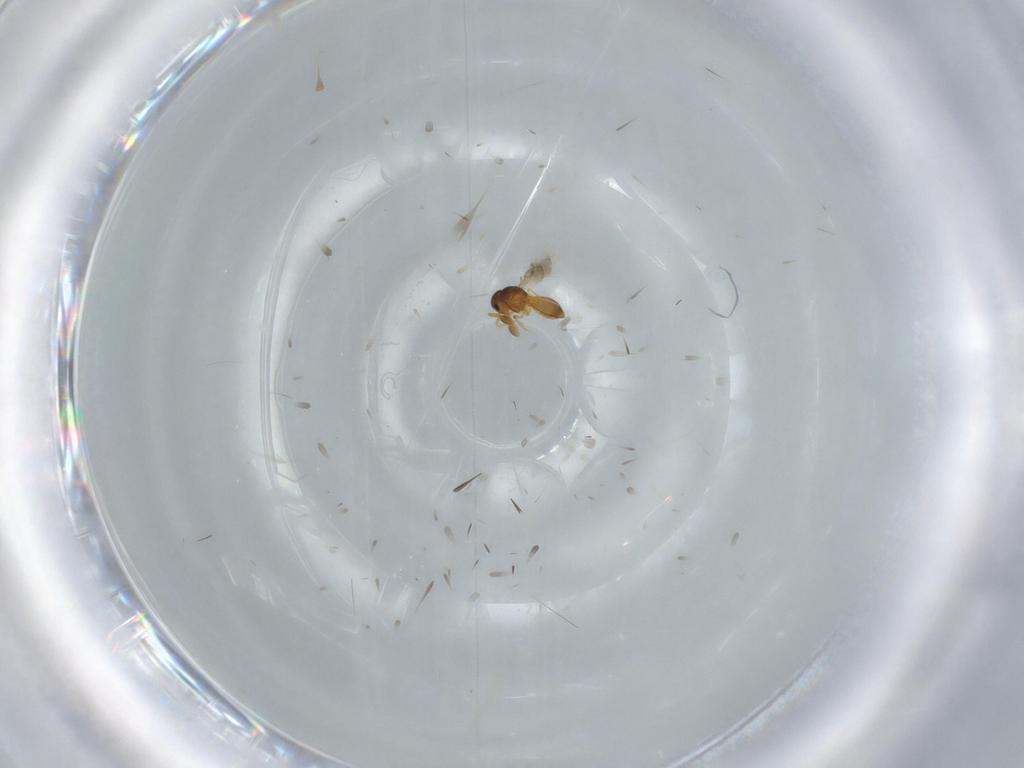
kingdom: Animalia
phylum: Arthropoda
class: Insecta
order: Hymenoptera
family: Scelionidae
